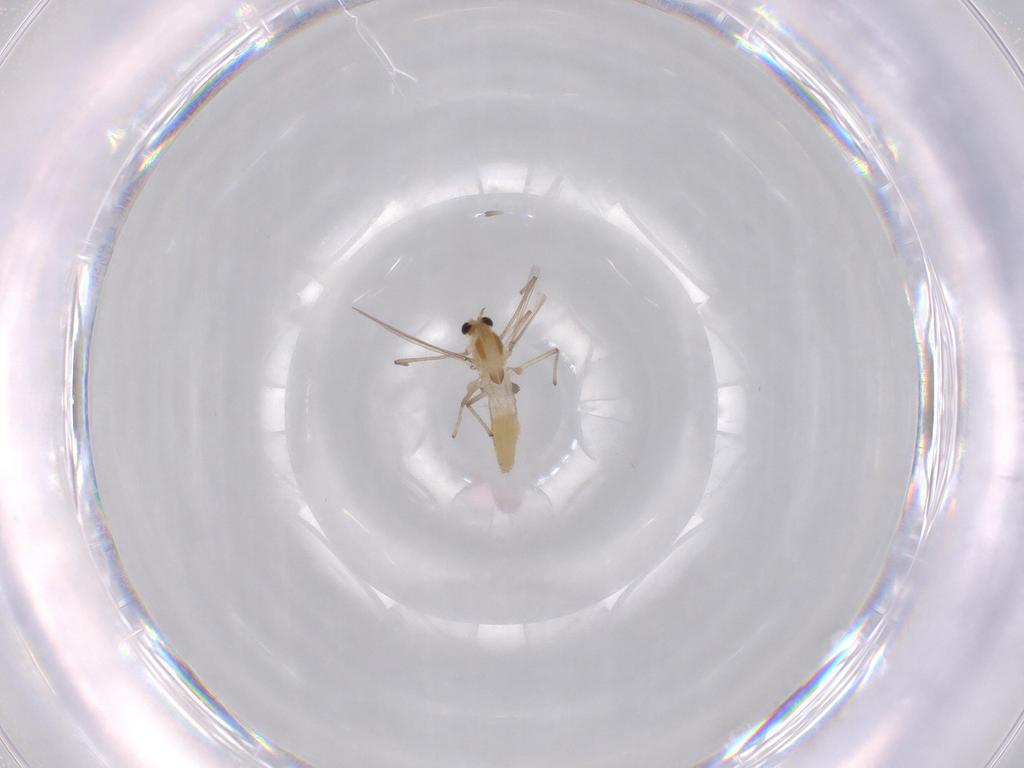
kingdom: Animalia
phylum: Arthropoda
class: Insecta
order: Diptera
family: Chironomidae
